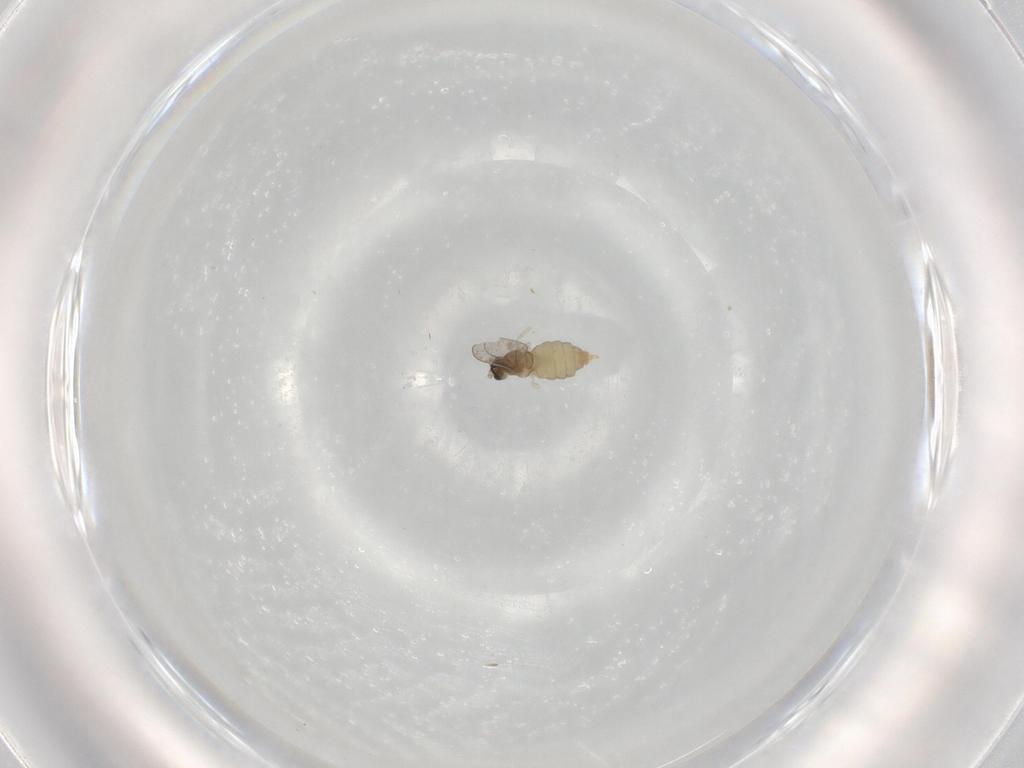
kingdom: Animalia
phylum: Arthropoda
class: Insecta
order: Diptera
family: Cecidomyiidae
